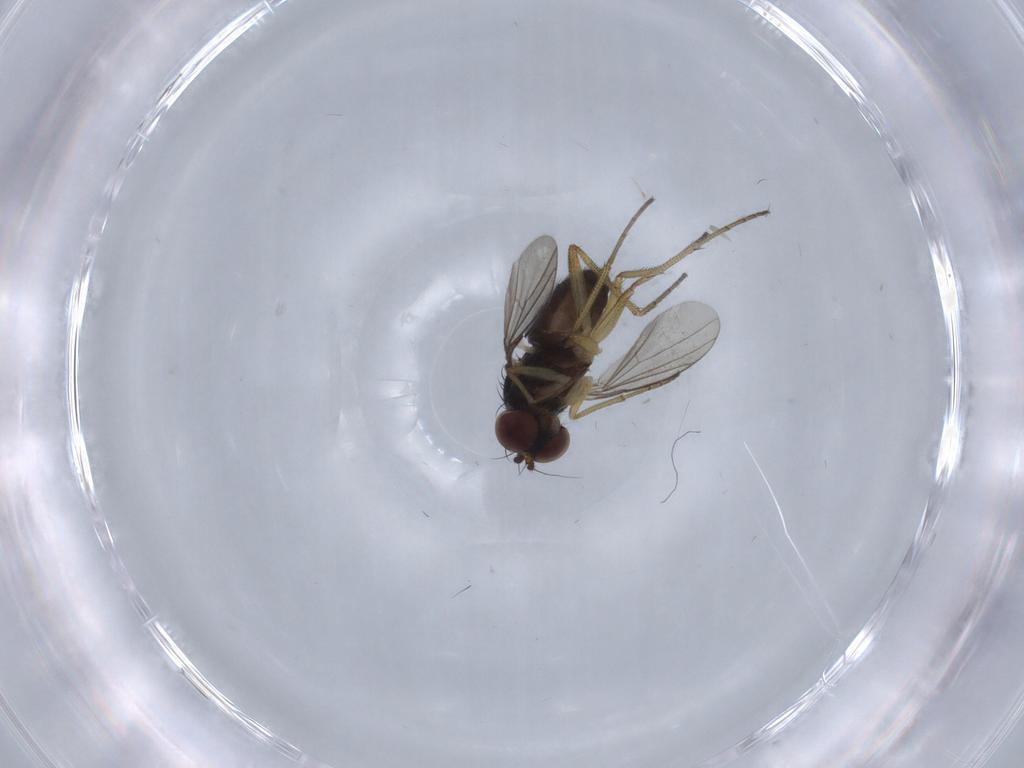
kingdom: Animalia
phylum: Arthropoda
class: Insecta
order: Diptera
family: Dolichopodidae
